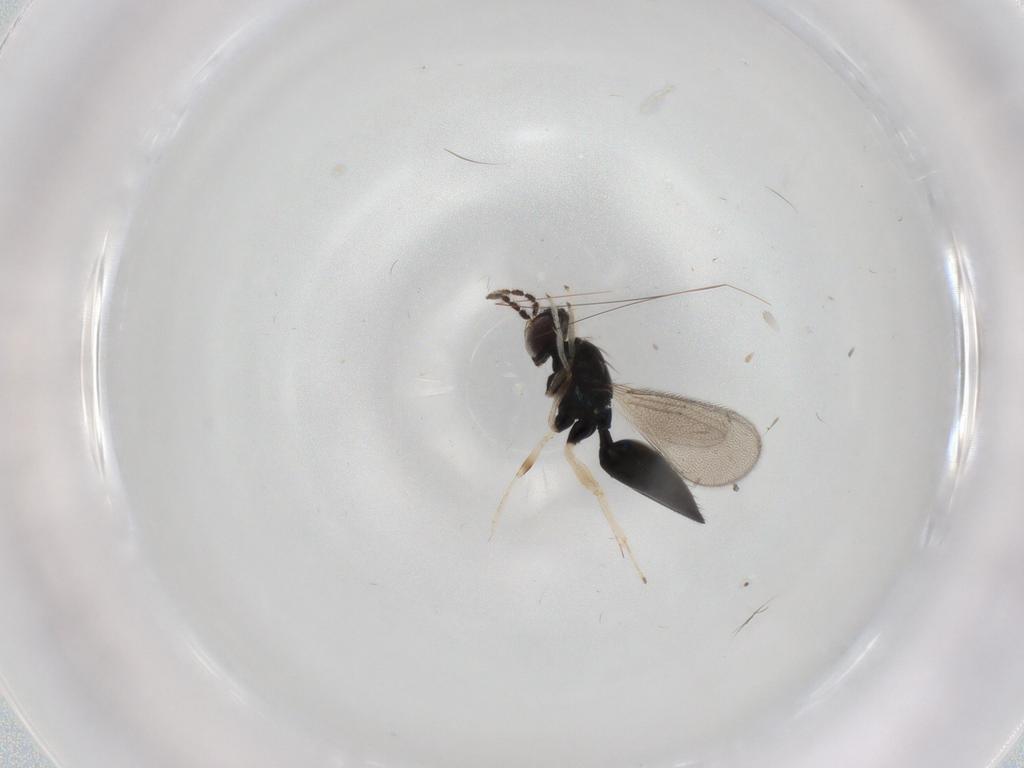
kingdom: Animalia
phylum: Arthropoda
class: Insecta
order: Hymenoptera
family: Eulophidae
